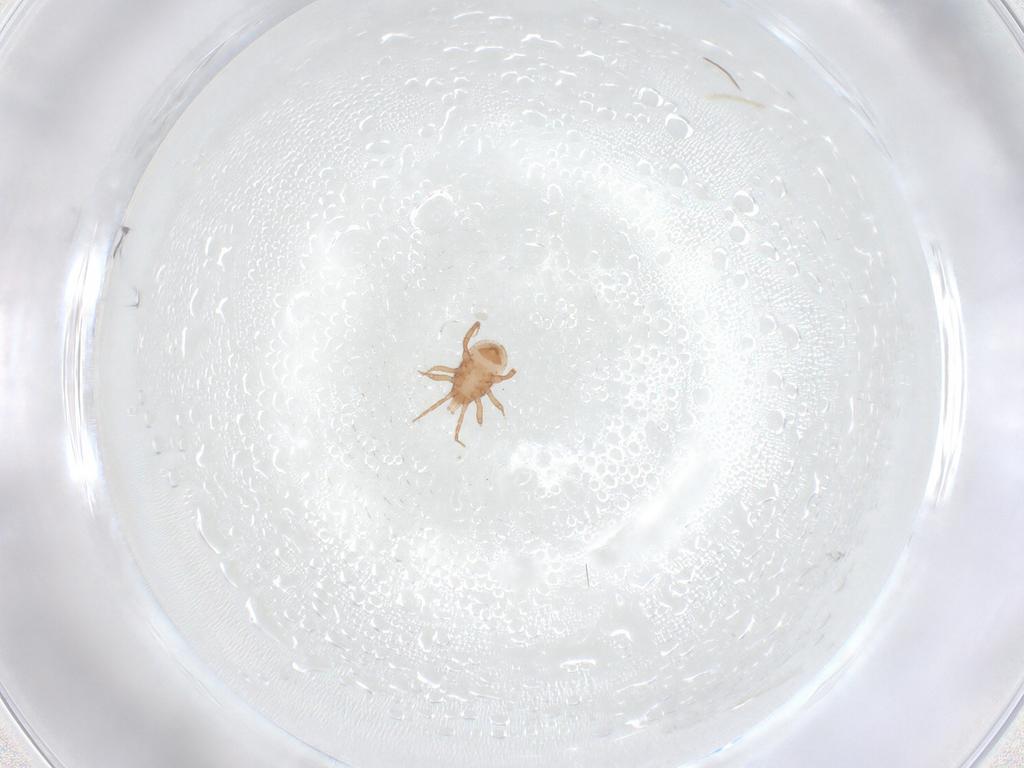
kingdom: Animalia
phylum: Arthropoda
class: Arachnida
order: Mesostigmata
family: Blattisociidae
